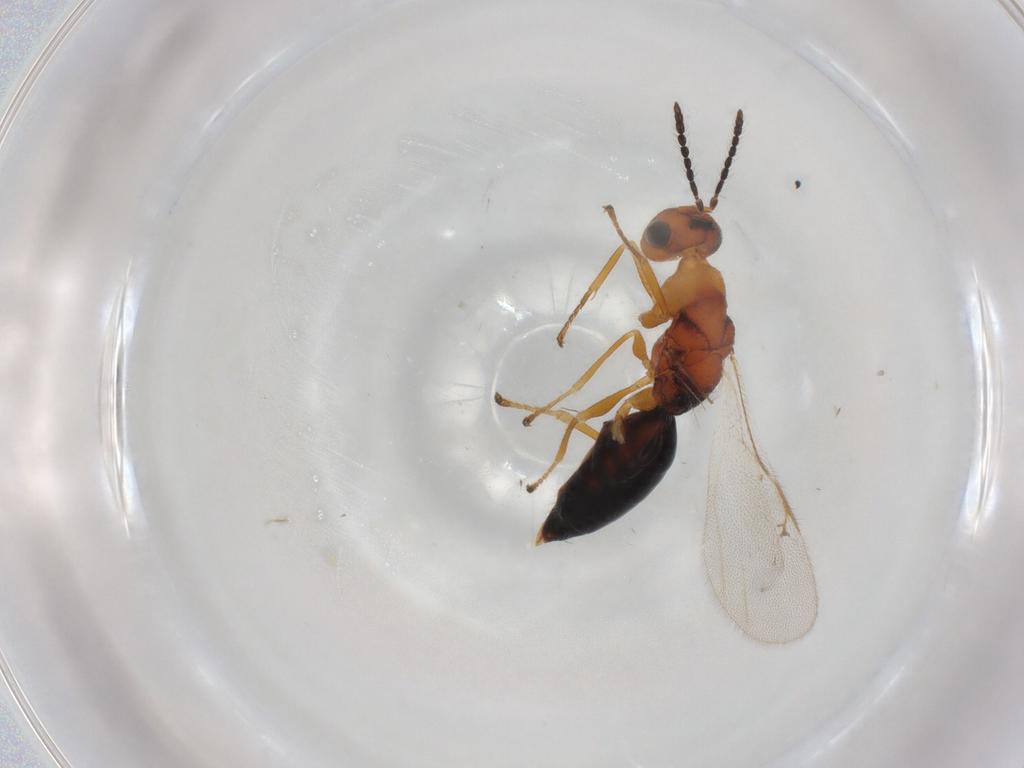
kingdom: Animalia
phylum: Arthropoda
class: Insecta
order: Hymenoptera
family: Eurytomidae
